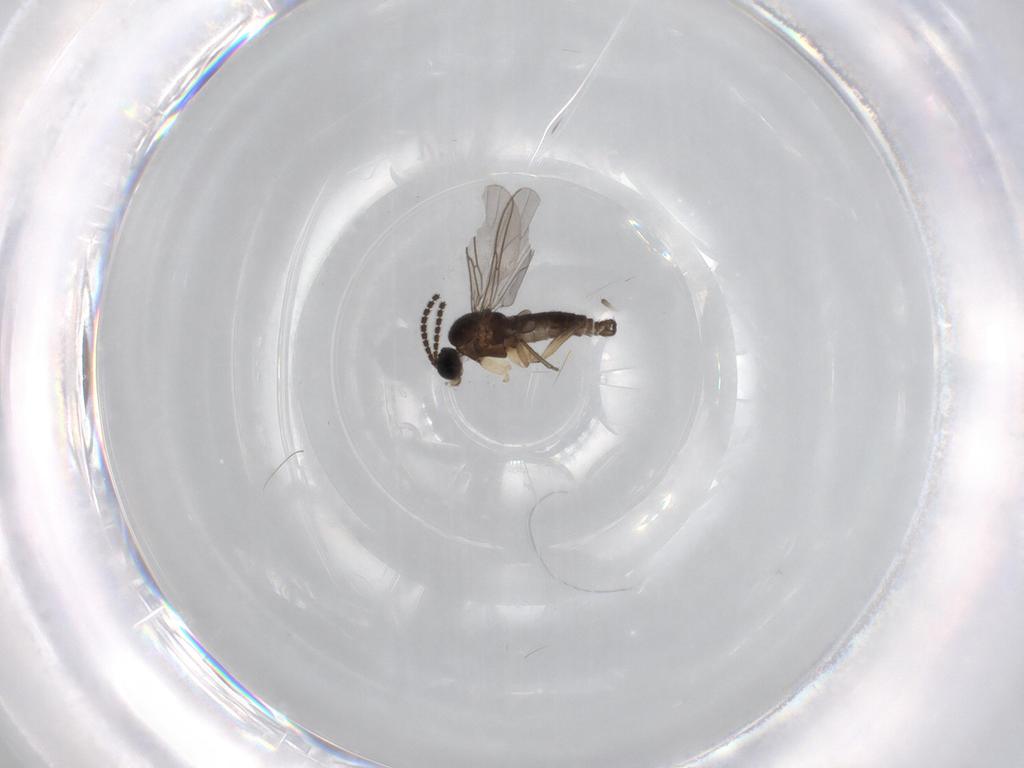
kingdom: Animalia
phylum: Arthropoda
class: Insecta
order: Diptera
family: Sciaridae
